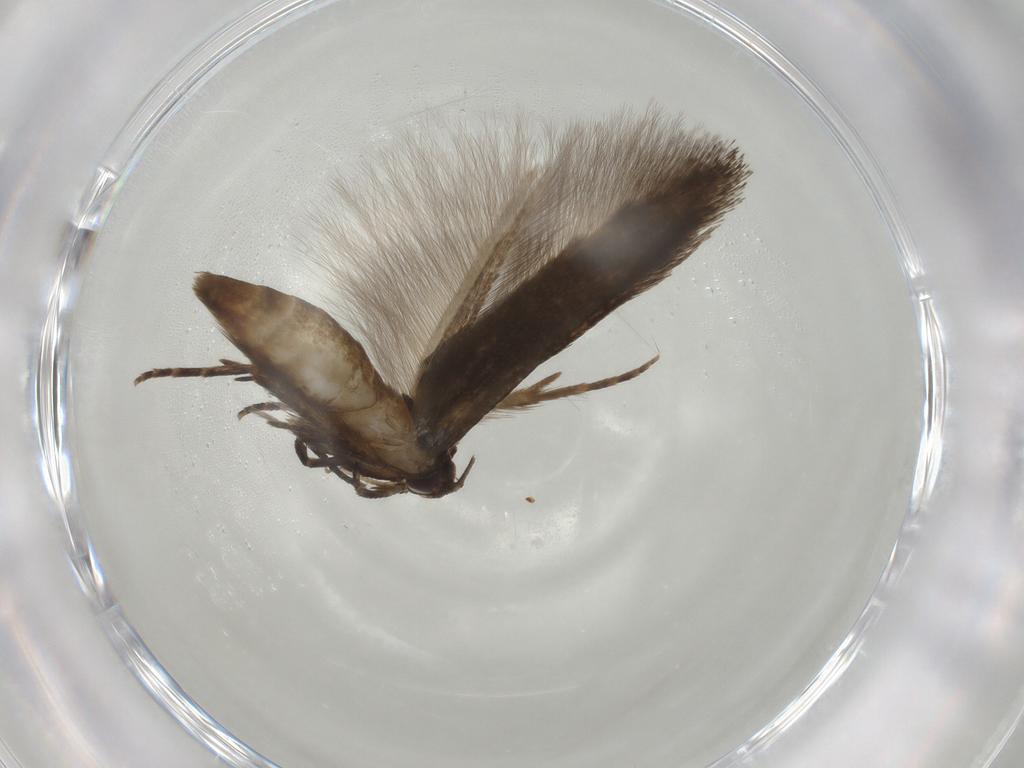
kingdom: Animalia
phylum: Arthropoda
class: Insecta
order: Lepidoptera
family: Cosmopterigidae
